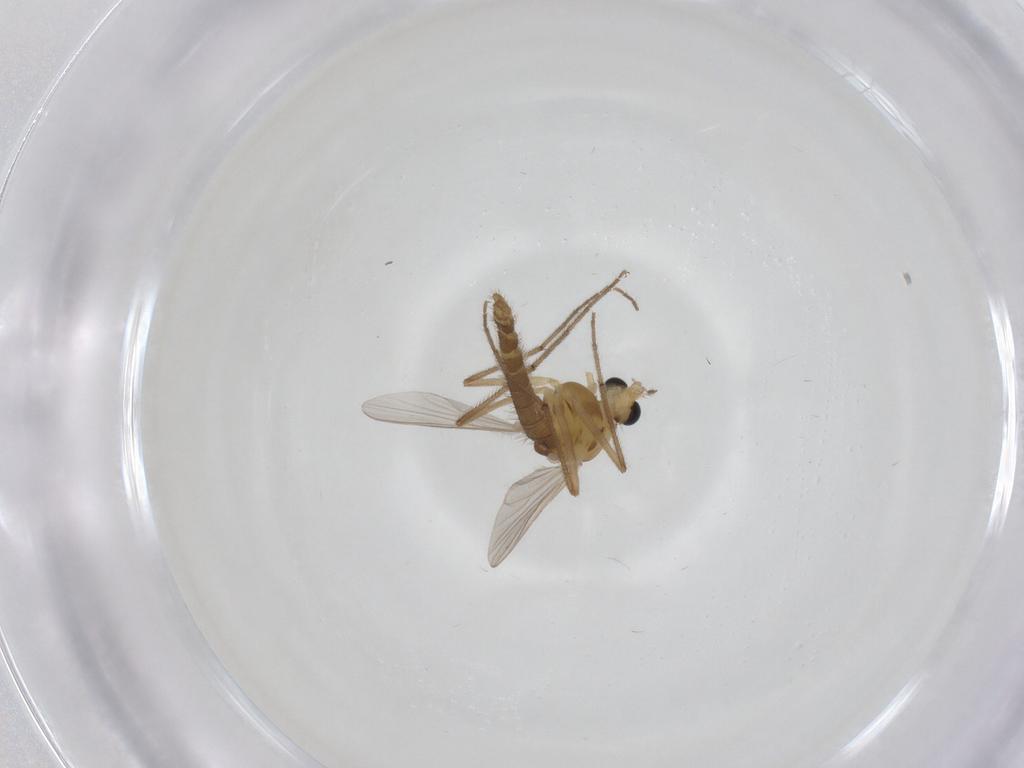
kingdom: Animalia
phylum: Arthropoda
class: Insecta
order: Diptera
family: Chironomidae
